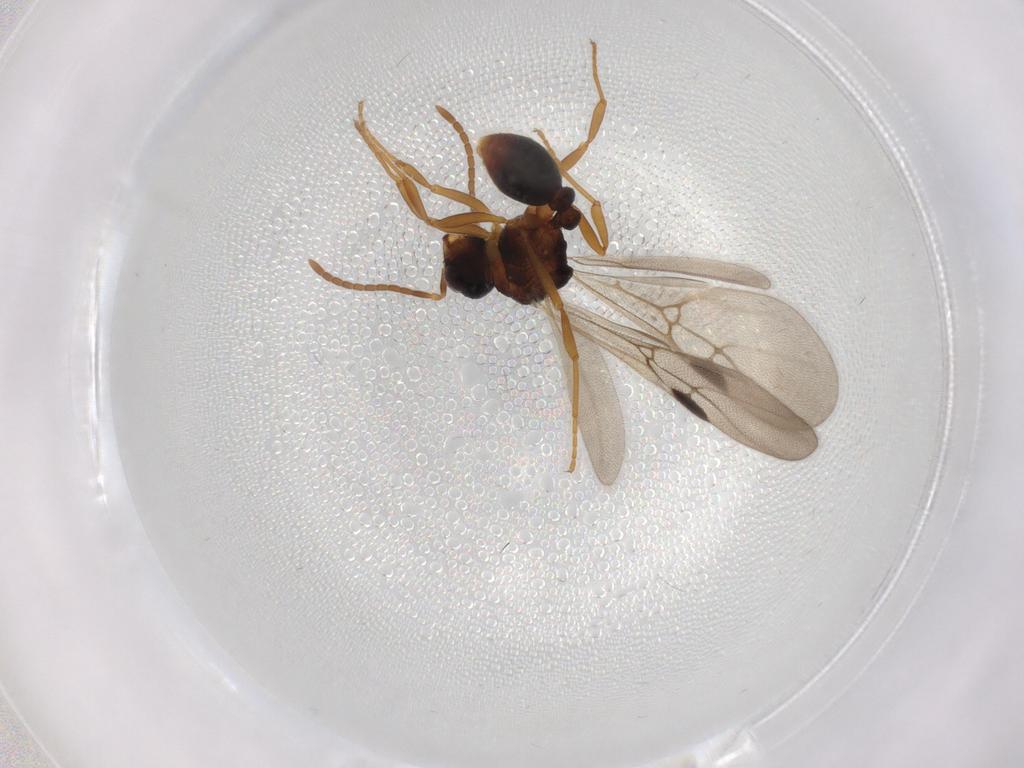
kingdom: Animalia
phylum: Arthropoda
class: Insecta
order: Hymenoptera
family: Formicidae
